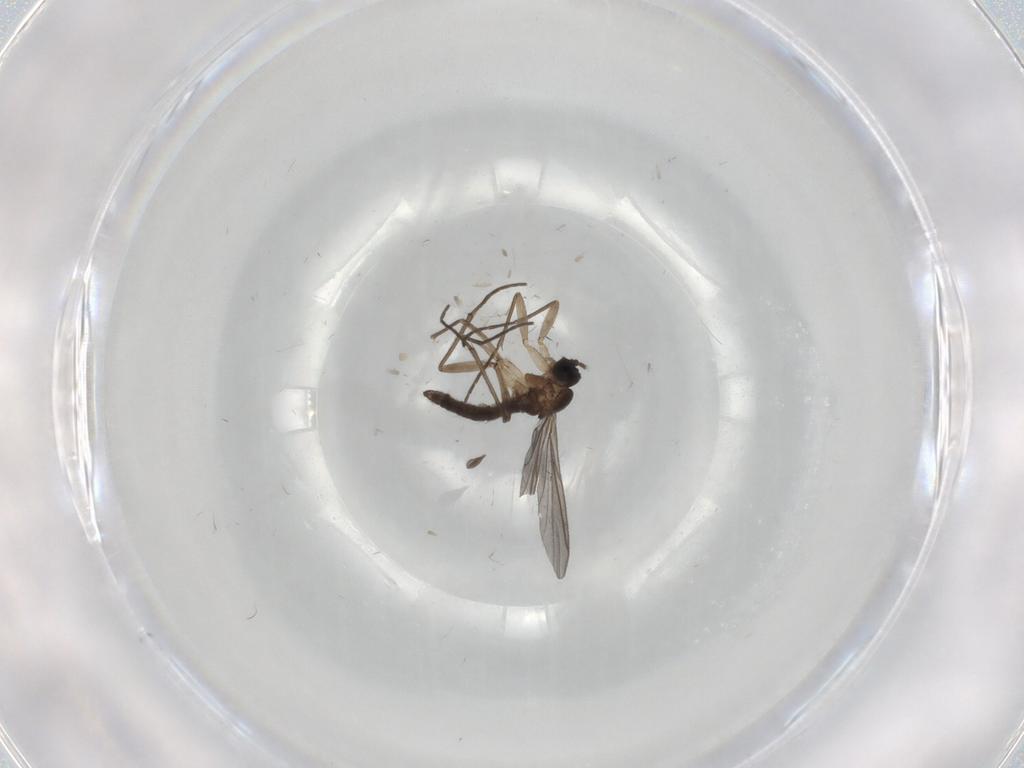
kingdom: Animalia
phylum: Arthropoda
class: Insecta
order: Diptera
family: Sciaridae
